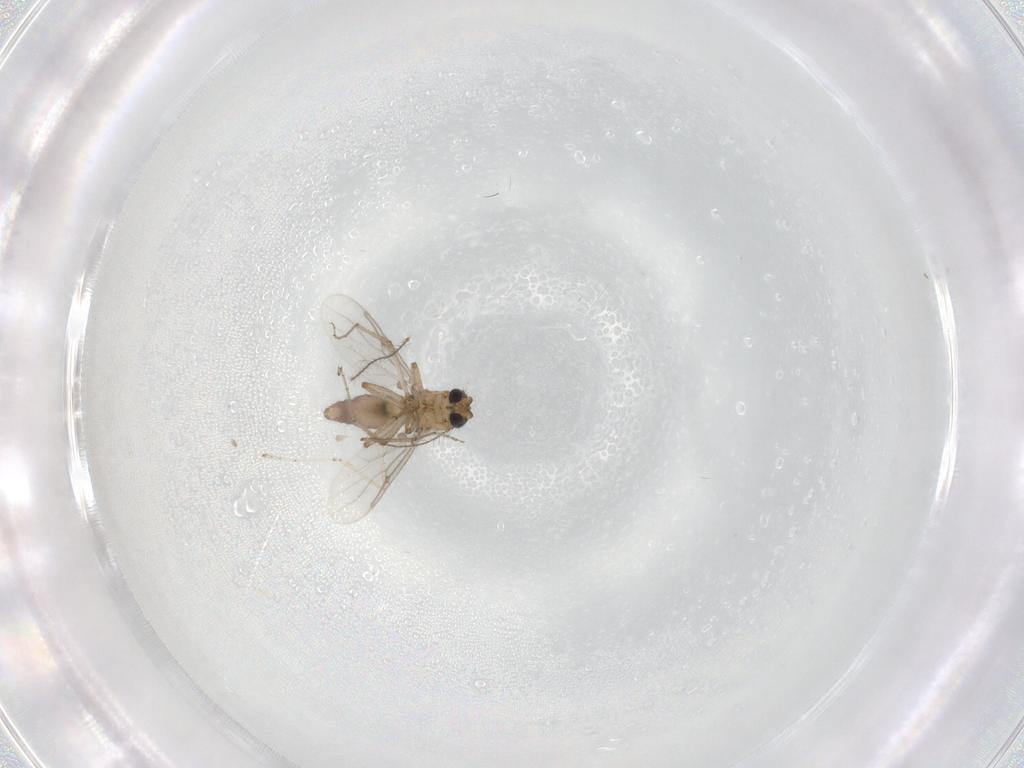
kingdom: Animalia
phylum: Arthropoda
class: Insecta
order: Diptera
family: Ceratopogonidae
